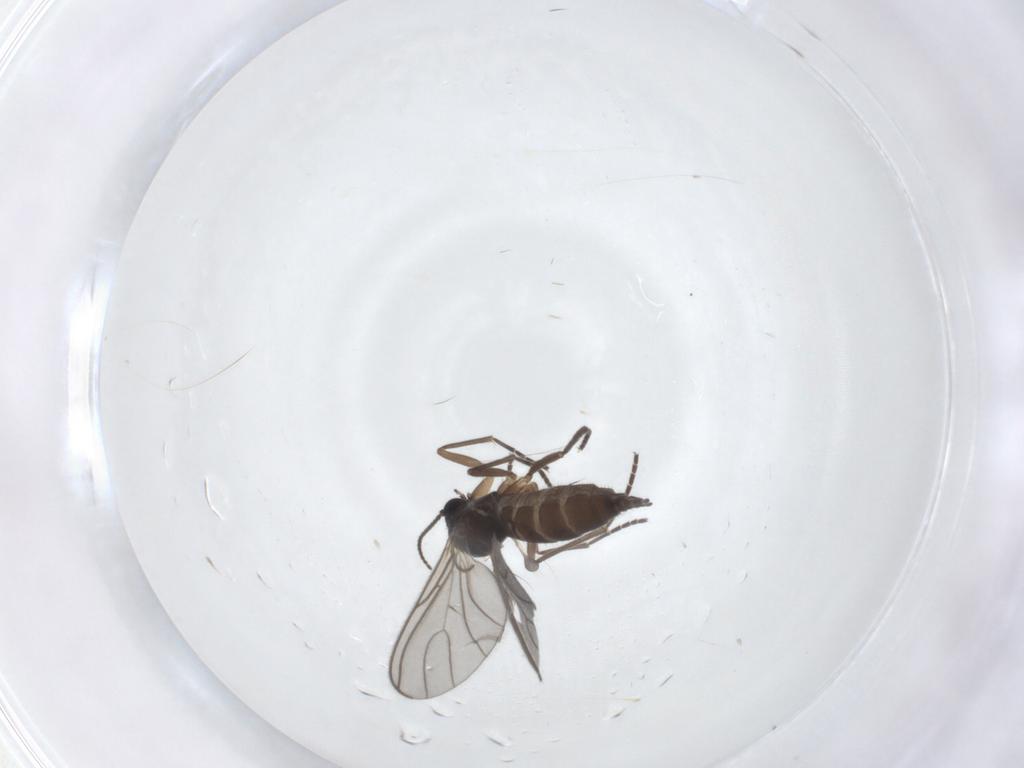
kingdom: Animalia
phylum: Arthropoda
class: Insecta
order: Diptera
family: Sciaridae
